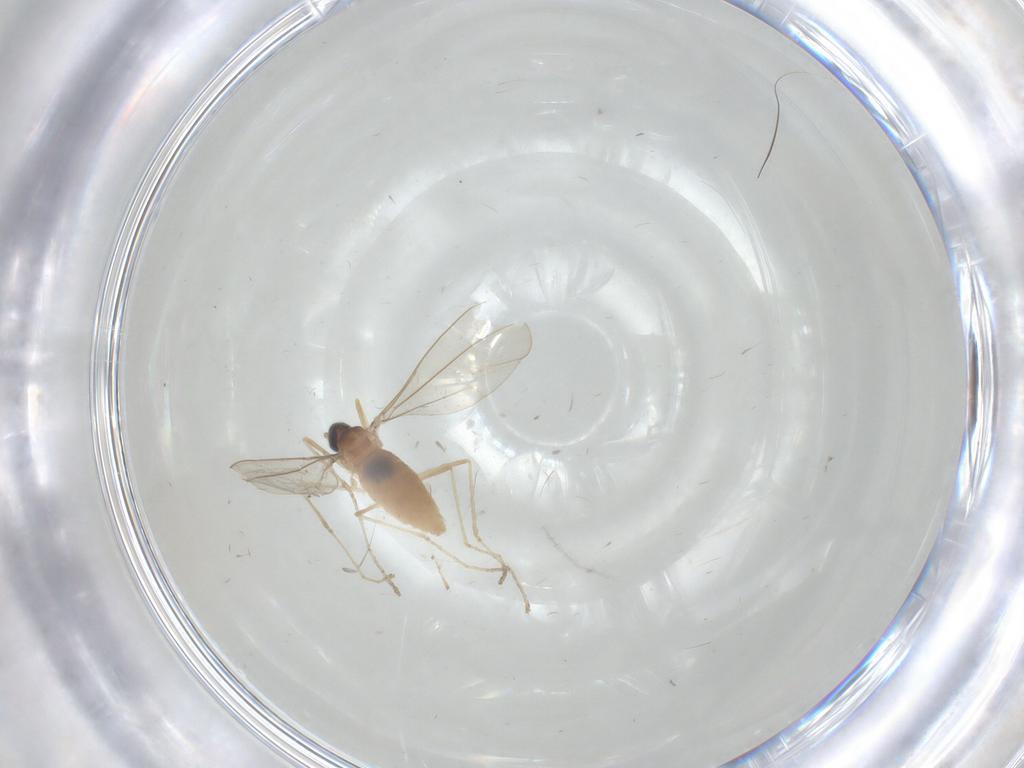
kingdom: Animalia
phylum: Arthropoda
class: Insecta
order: Diptera
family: Cecidomyiidae
